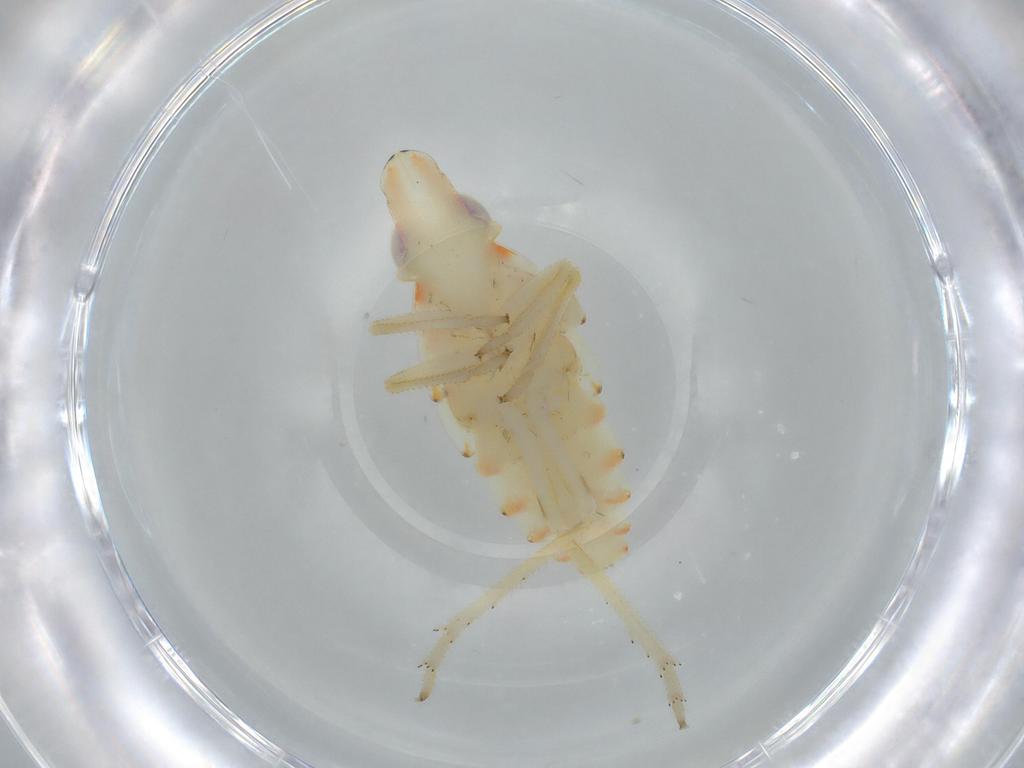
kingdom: Animalia
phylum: Arthropoda
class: Insecta
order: Hemiptera
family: Tropiduchidae
